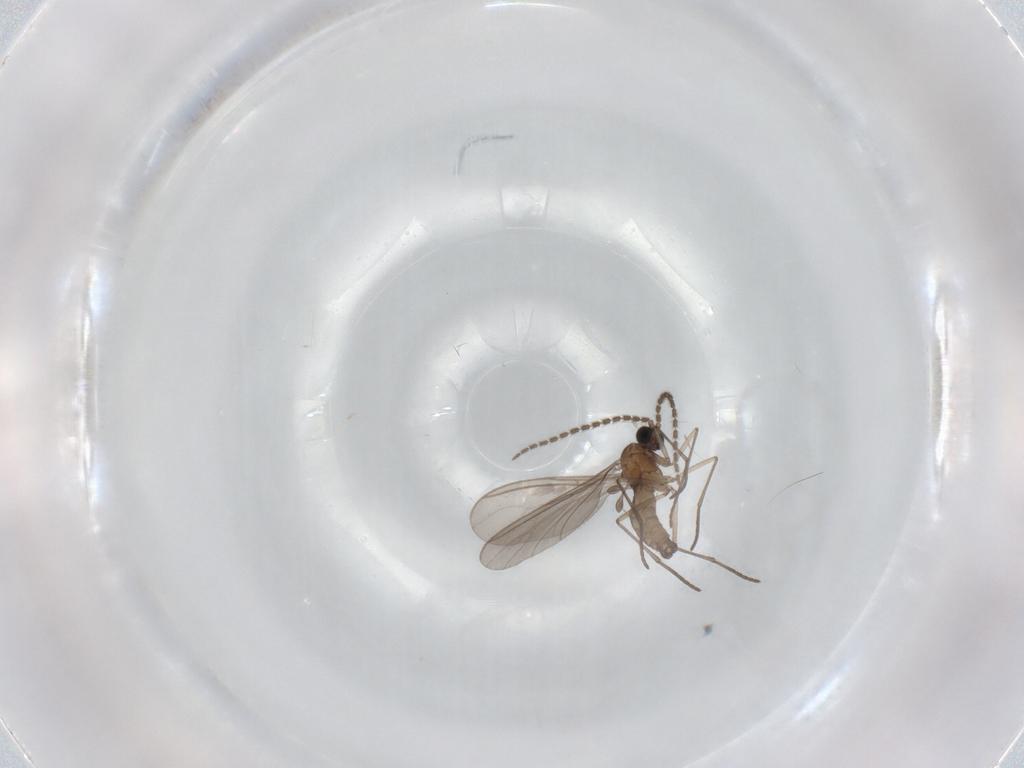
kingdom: Animalia
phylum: Arthropoda
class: Insecta
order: Diptera
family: Sciaridae
